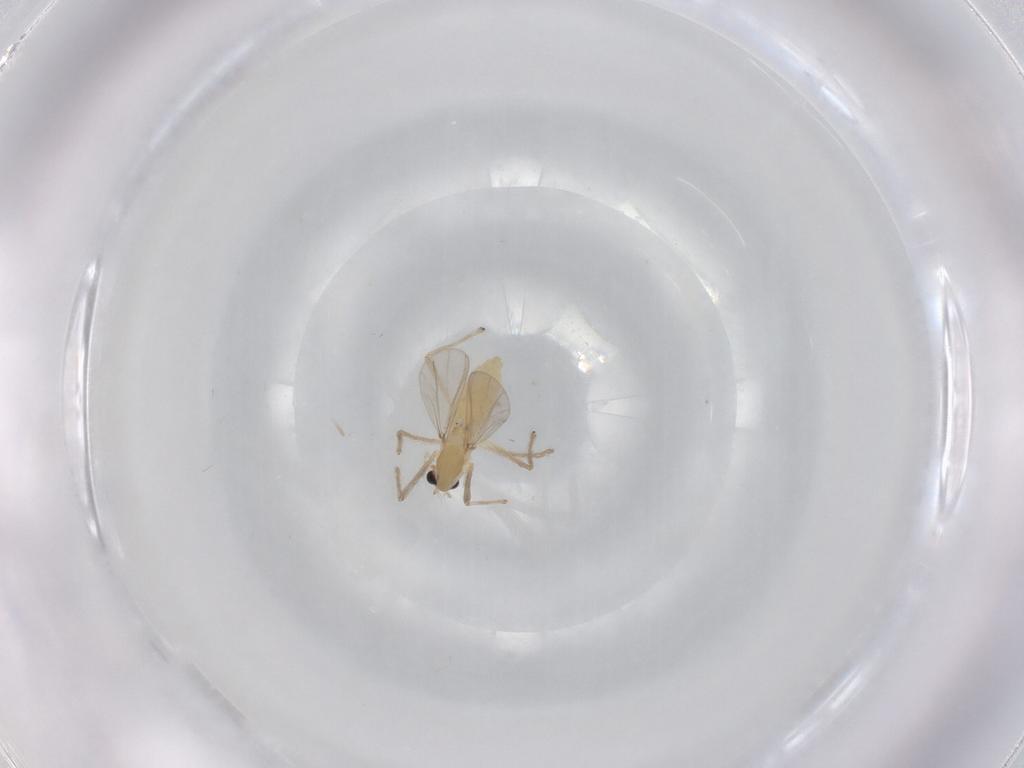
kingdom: Animalia
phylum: Arthropoda
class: Insecta
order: Diptera
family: Chironomidae
